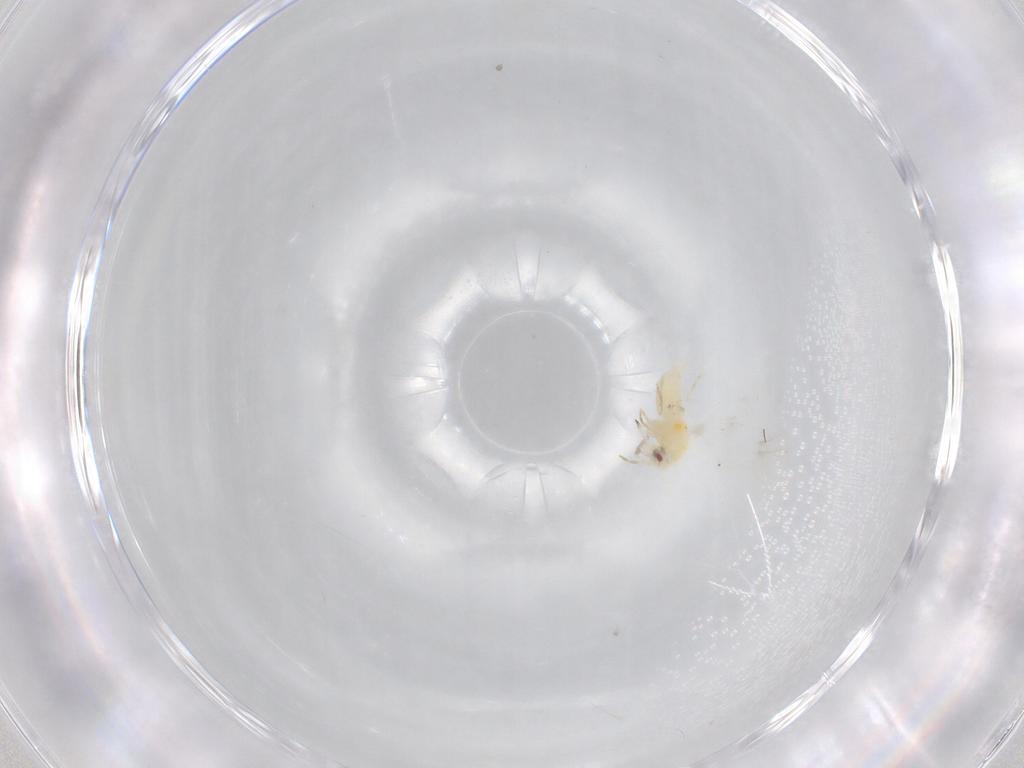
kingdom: Animalia
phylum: Arthropoda
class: Insecta
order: Hemiptera
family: Aleyrodidae
